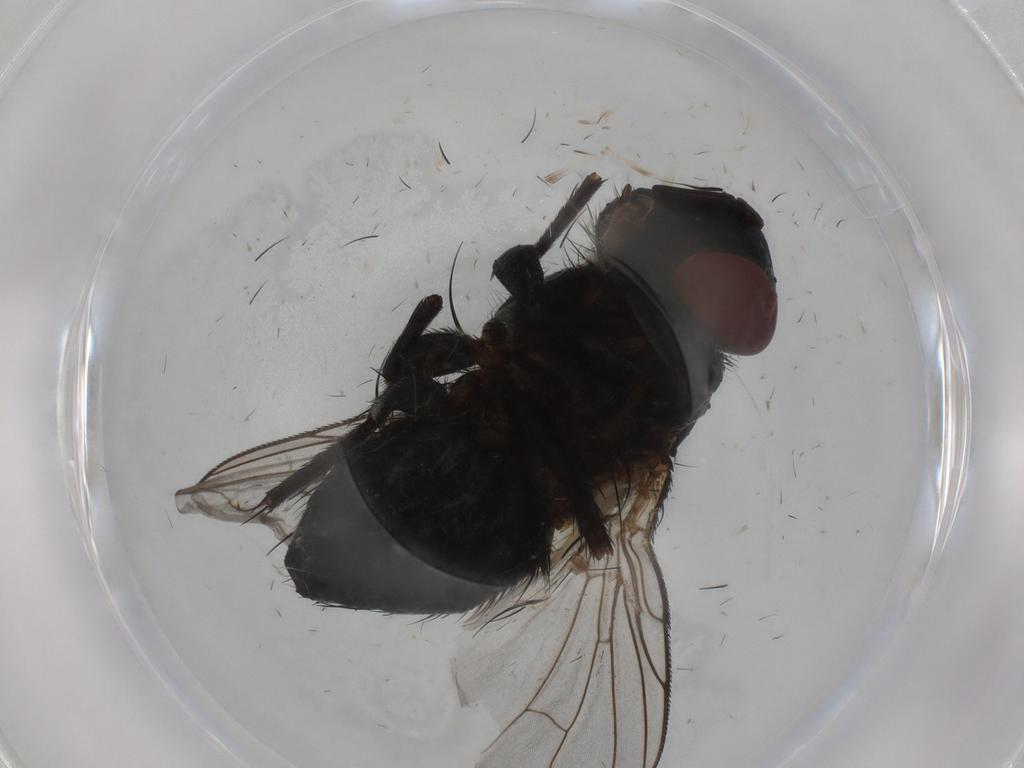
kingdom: Animalia
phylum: Arthropoda
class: Insecta
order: Diptera
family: Tachinidae
